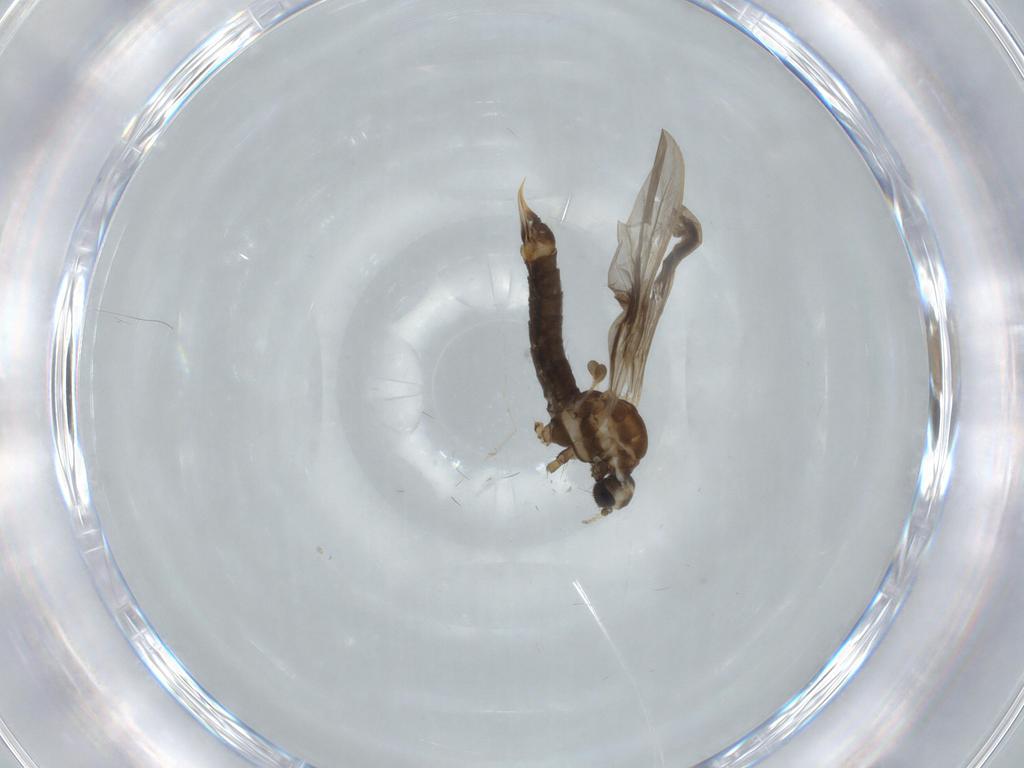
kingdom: Animalia
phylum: Arthropoda
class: Insecta
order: Diptera
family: Limoniidae
